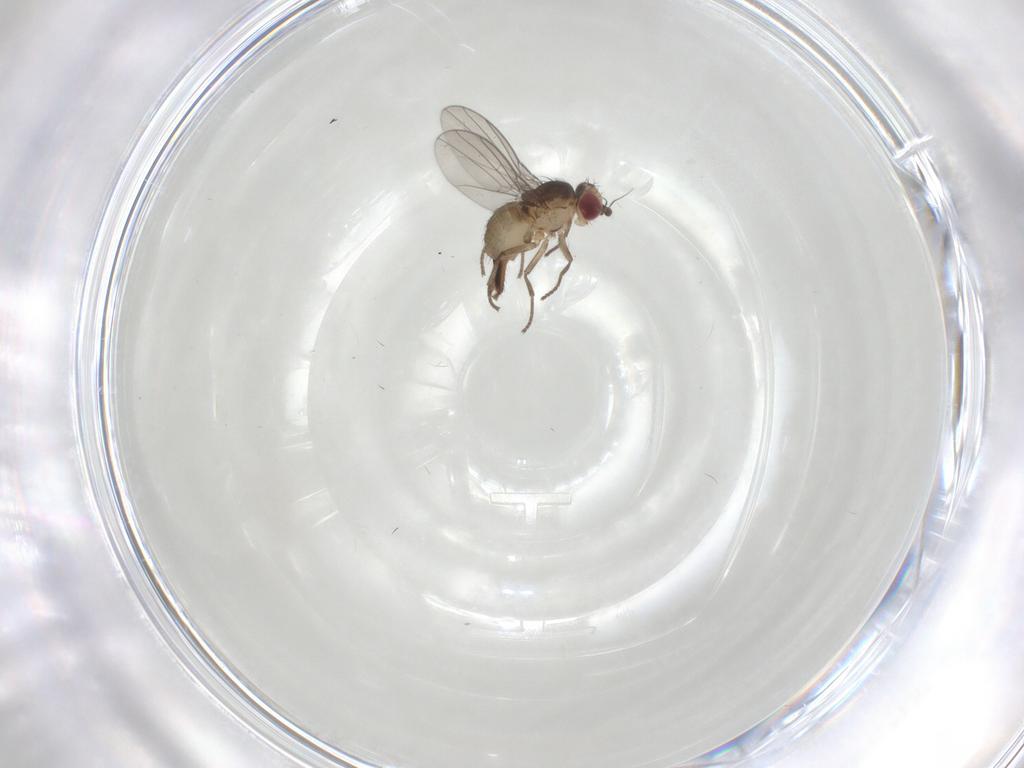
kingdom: Animalia
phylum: Arthropoda
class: Insecta
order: Diptera
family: Agromyzidae
